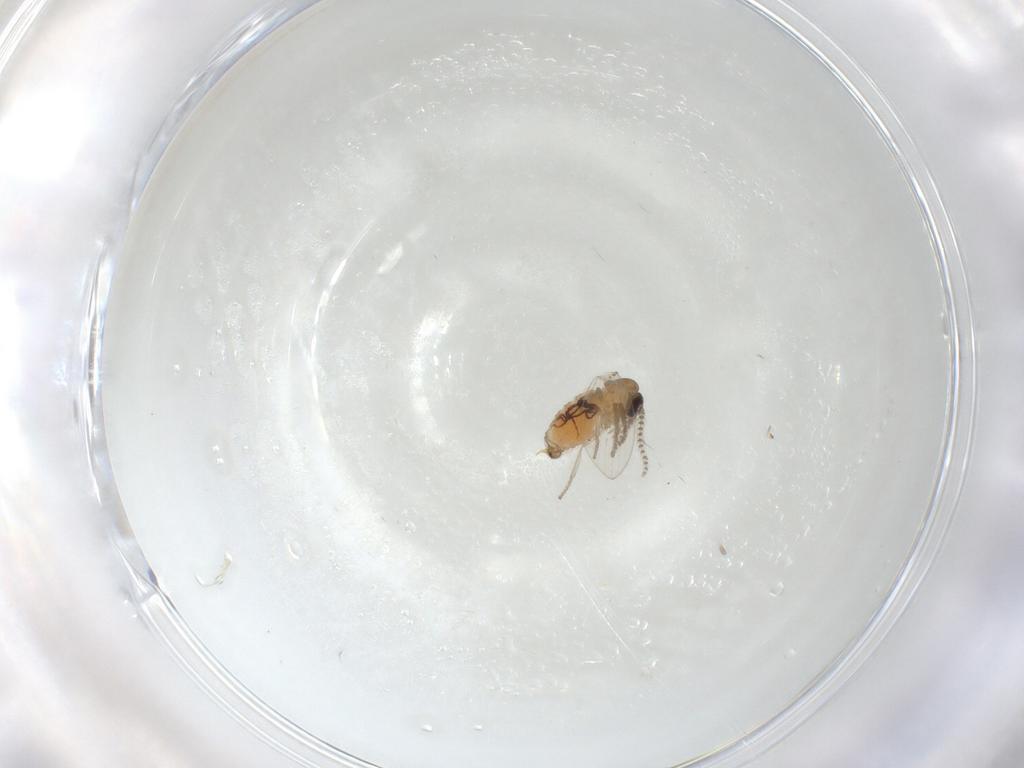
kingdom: Animalia
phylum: Arthropoda
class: Insecta
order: Diptera
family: Psychodidae
